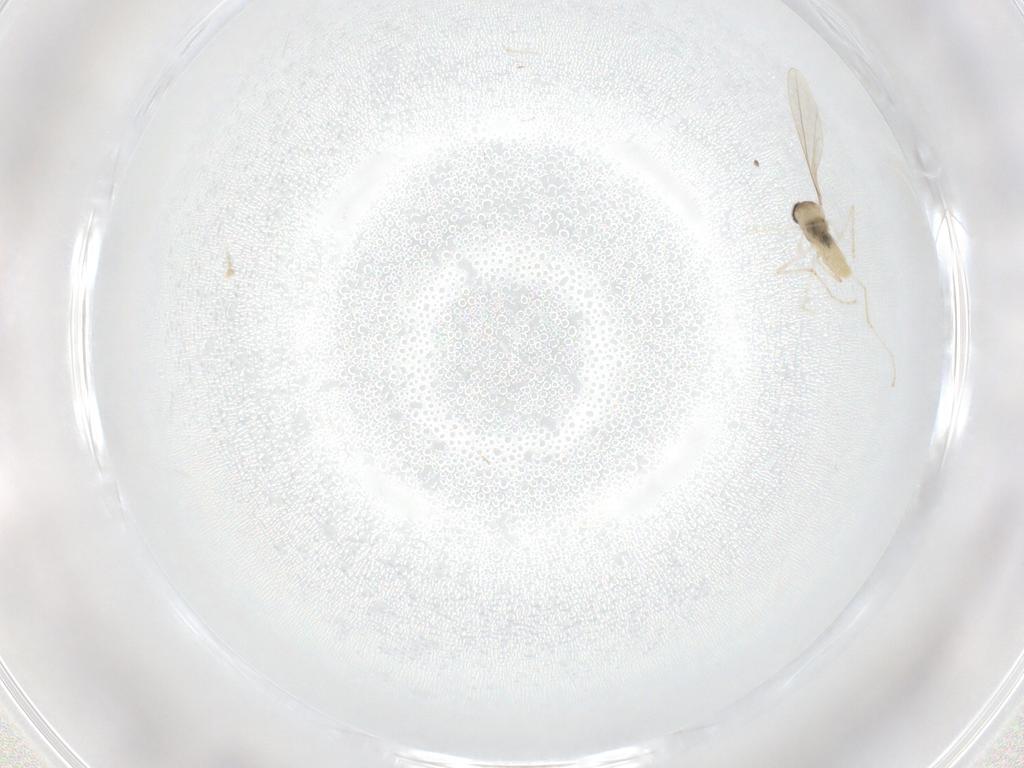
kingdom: Animalia
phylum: Arthropoda
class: Insecta
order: Diptera
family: Cecidomyiidae
